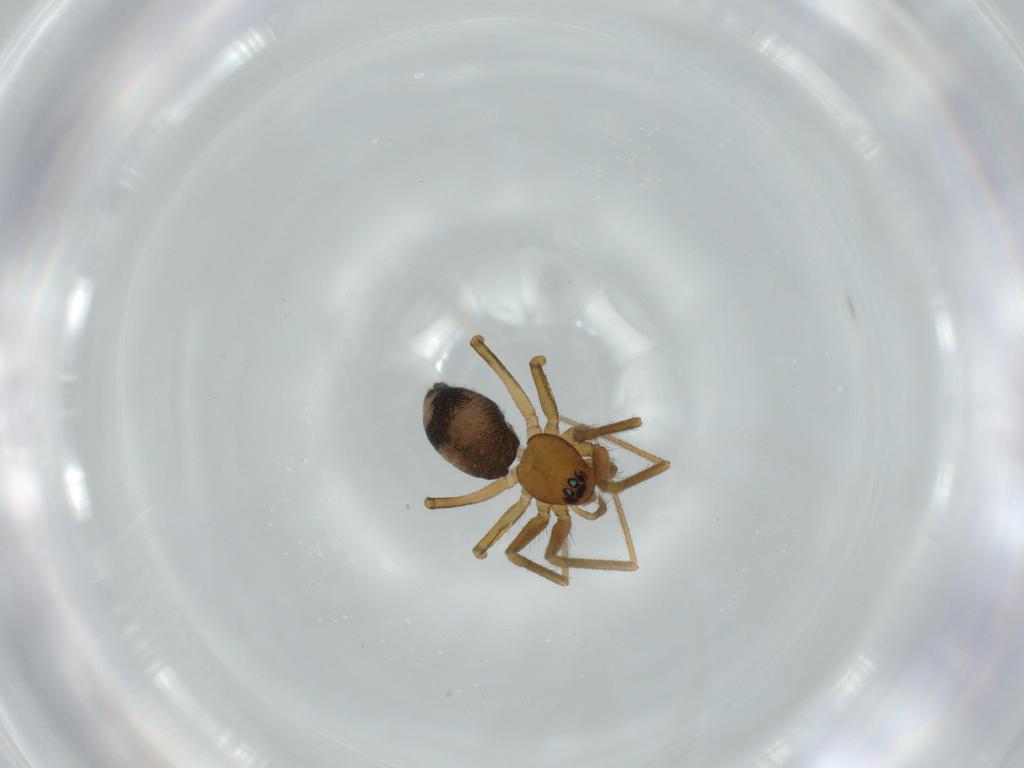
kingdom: Animalia
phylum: Arthropoda
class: Arachnida
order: Araneae
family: Linyphiidae
